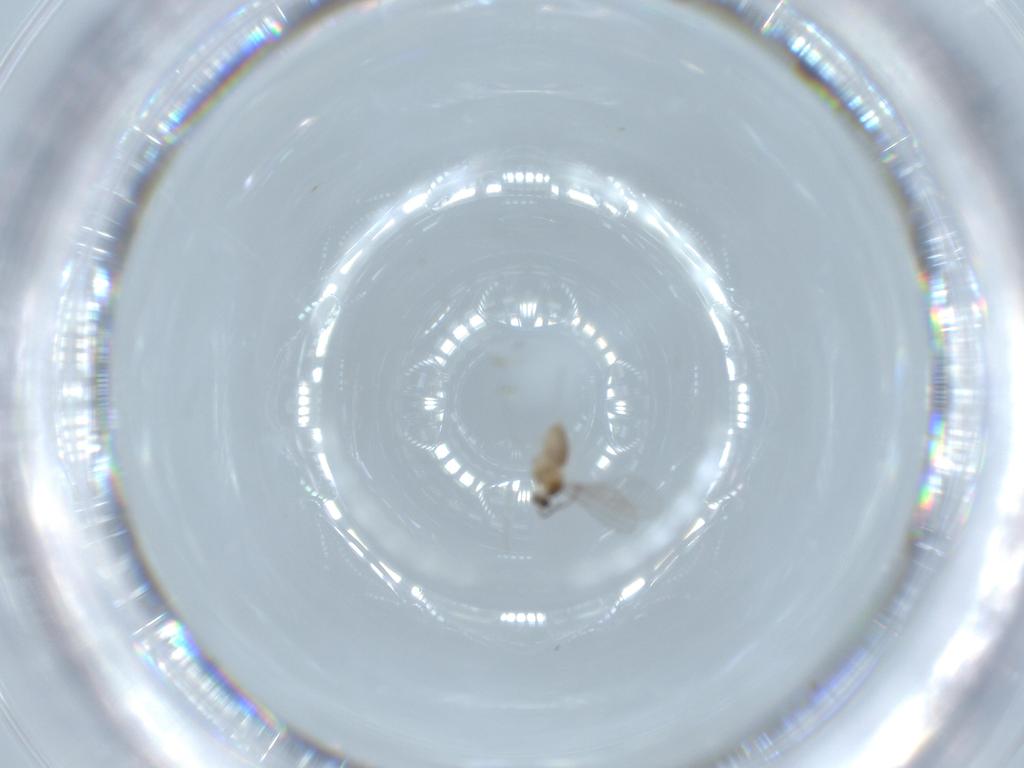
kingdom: Animalia
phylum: Arthropoda
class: Insecta
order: Diptera
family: Cecidomyiidae
